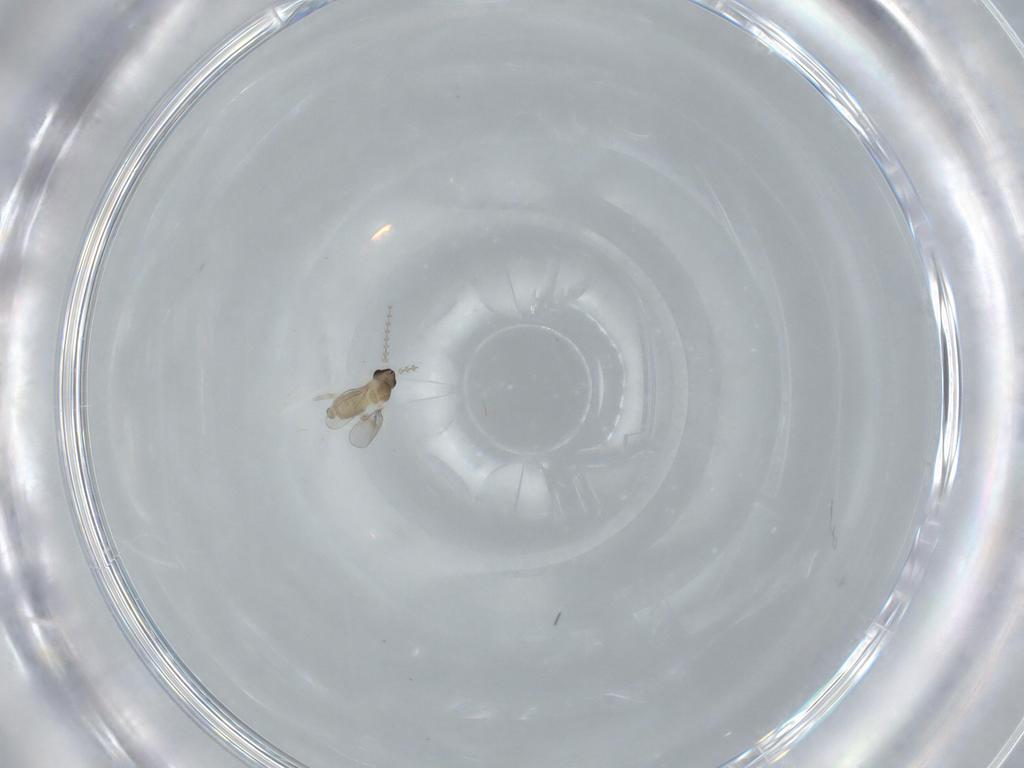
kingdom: Animalia
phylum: Arthropoda
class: Insecta
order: Diptera
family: Cecidomyiidae
